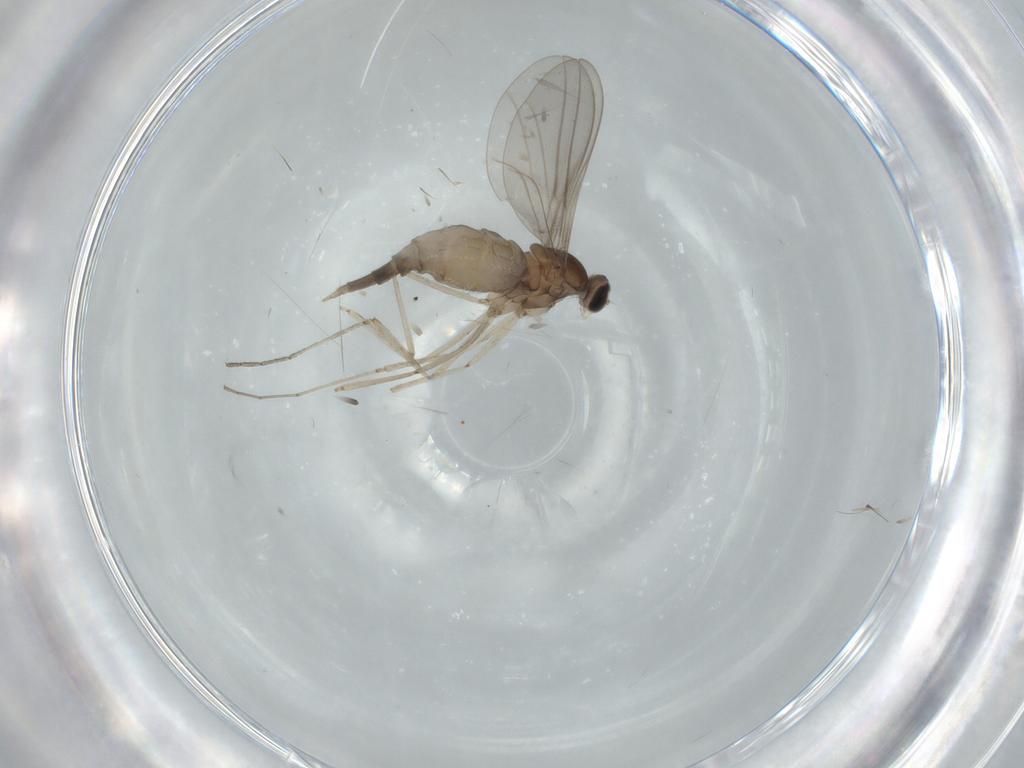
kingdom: Animalia
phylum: Arthropoda
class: Insecta
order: Diptera
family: Cecidomyiidae
